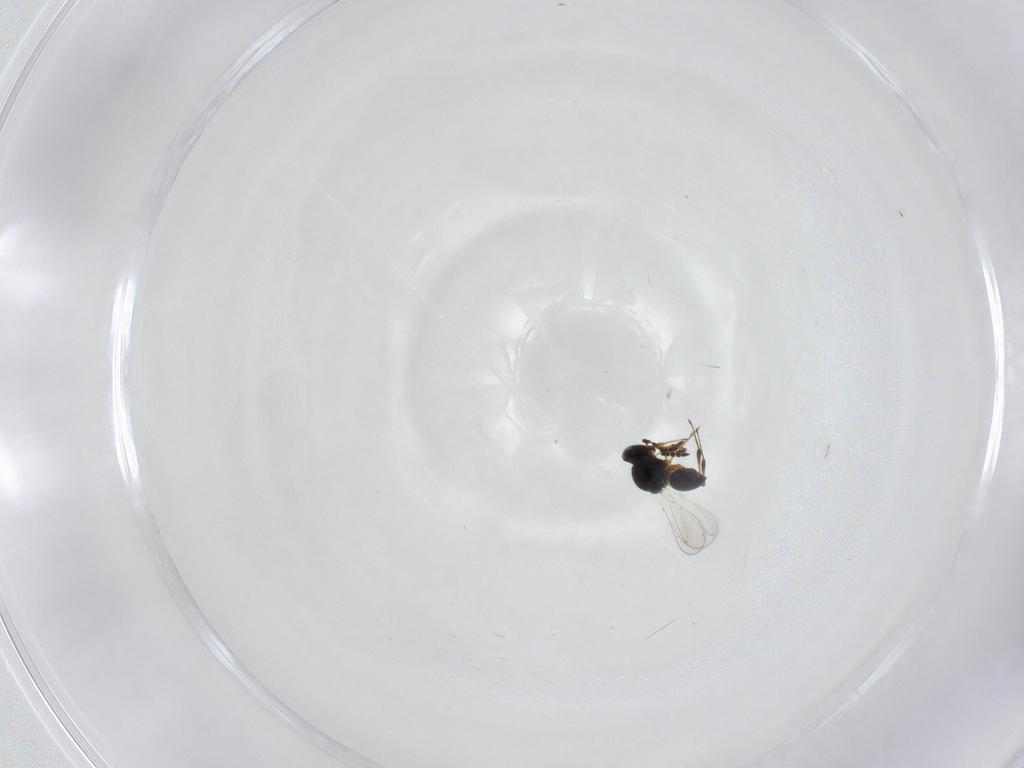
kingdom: Animalia
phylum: Arthropoda
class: Insecta
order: Hymenoptera
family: Platygastridae
